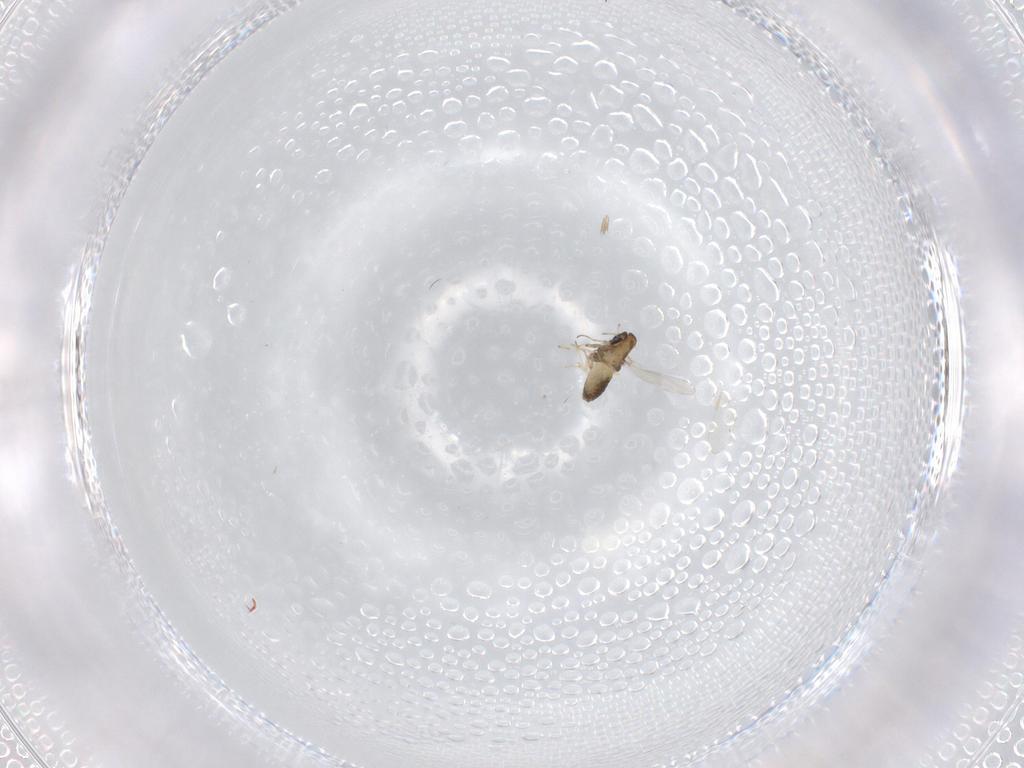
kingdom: Animalia
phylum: Arthropoda
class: Insecta
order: Diptera
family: Chironomidae
